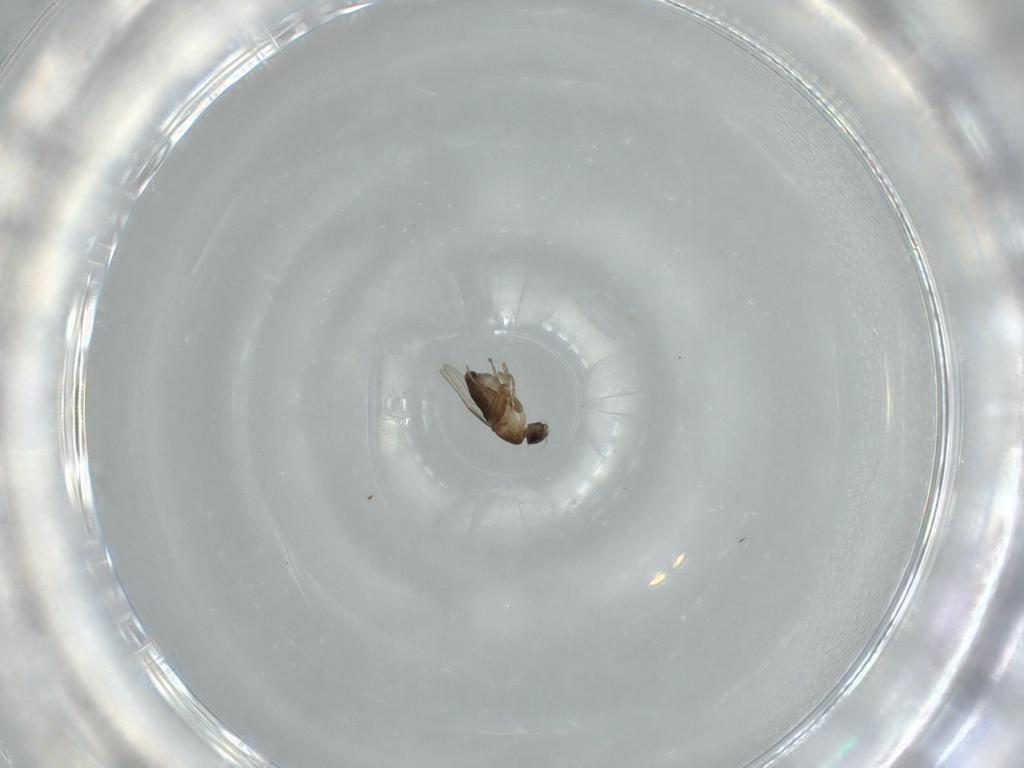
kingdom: Animalia
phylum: Arthropoda
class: Insecta
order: Diptera
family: Phoridae
